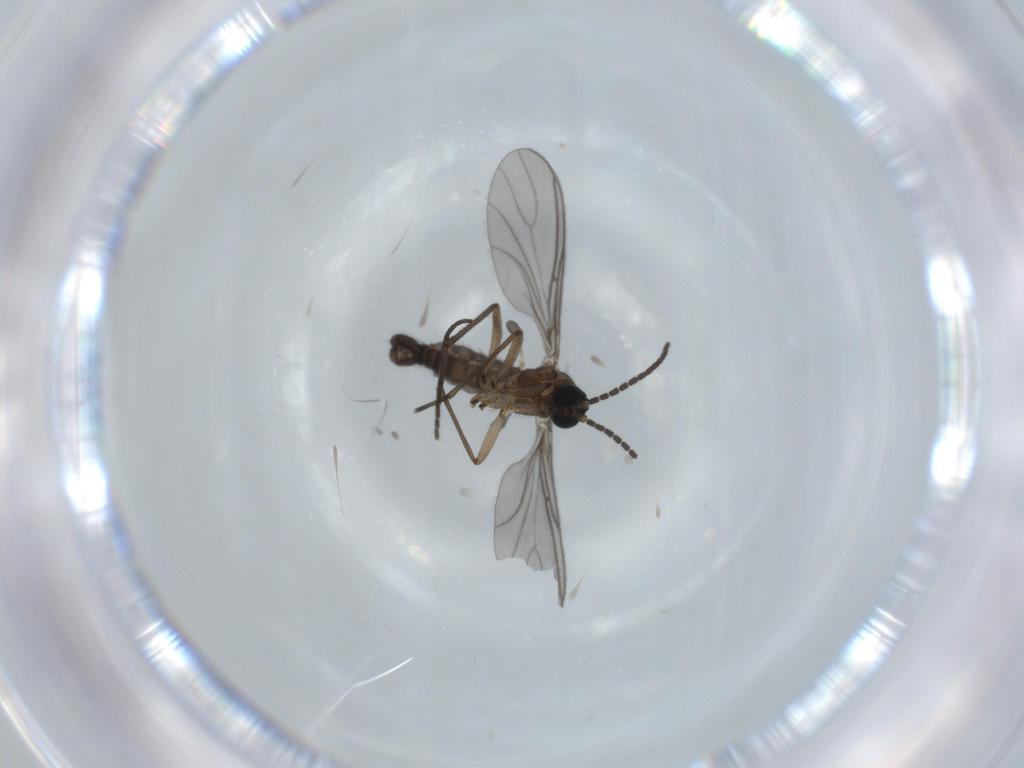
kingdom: Animalia
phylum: Arthropoda
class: Insecta
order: Diptera
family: Sciaridae
